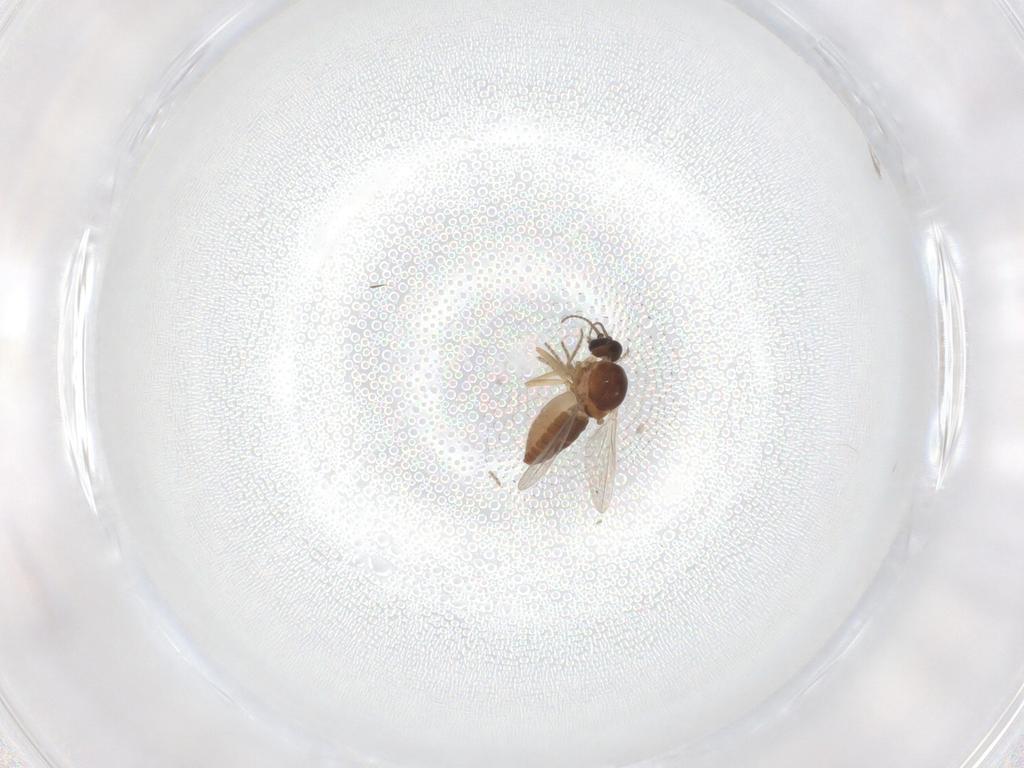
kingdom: Animalia
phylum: Arthropoda
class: Insecta
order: Diptera
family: Ceratopogonidae
